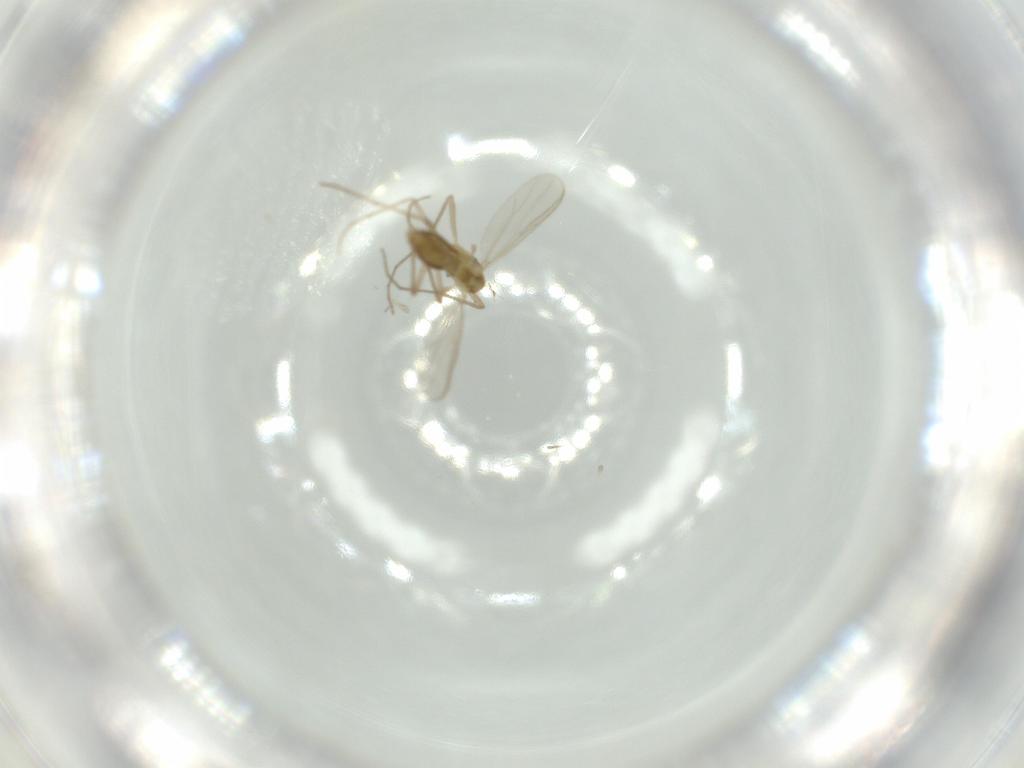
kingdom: Animalia
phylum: Arthropoda
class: Insecta
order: Diptera
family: Chironomidae
